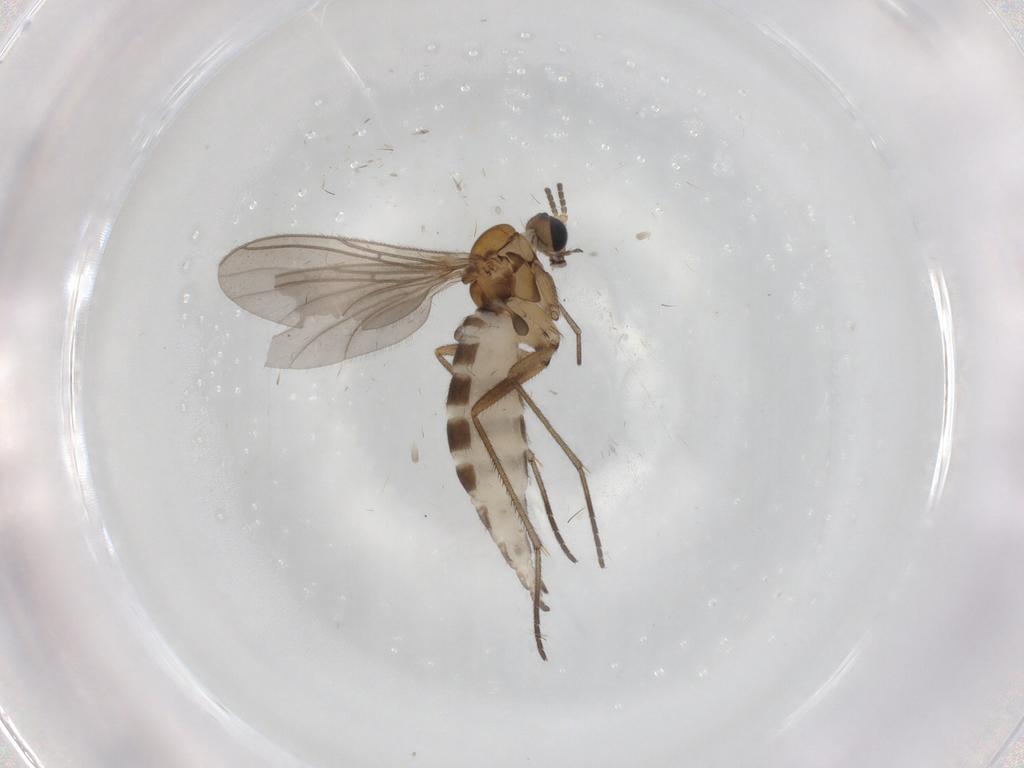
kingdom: Animalia
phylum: Arthropoda
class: Insecta
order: Diptera
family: Sciaridae
